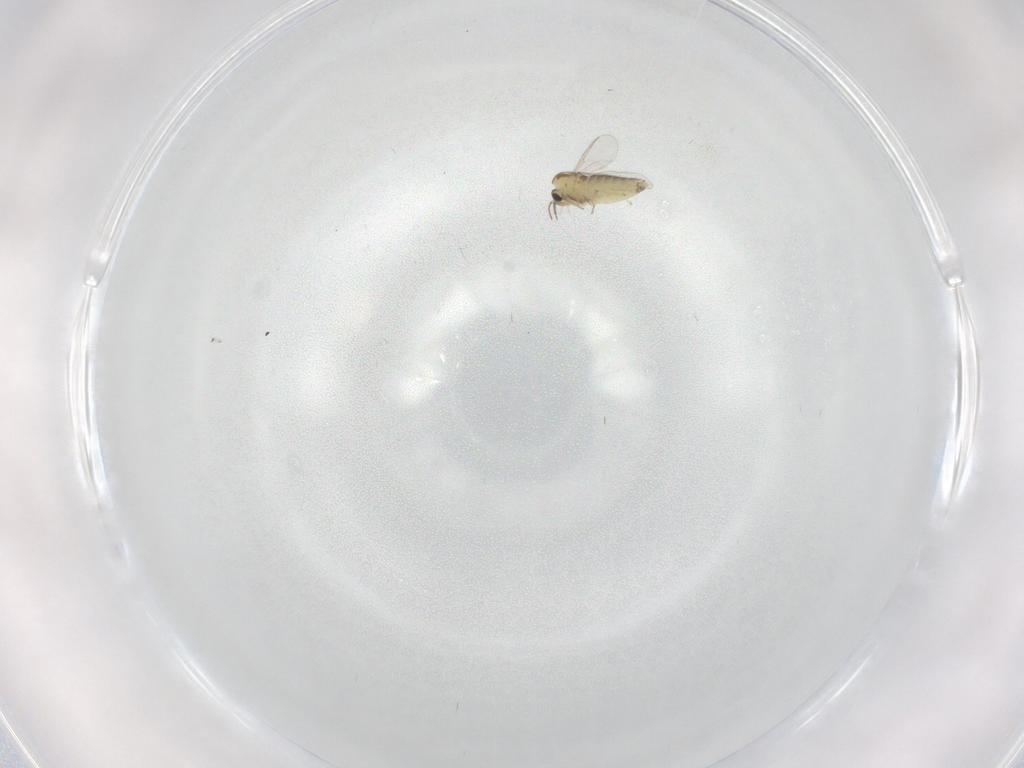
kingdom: Animalia
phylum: Arthropoda
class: Insecta
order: Diptera
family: Chironomidae
